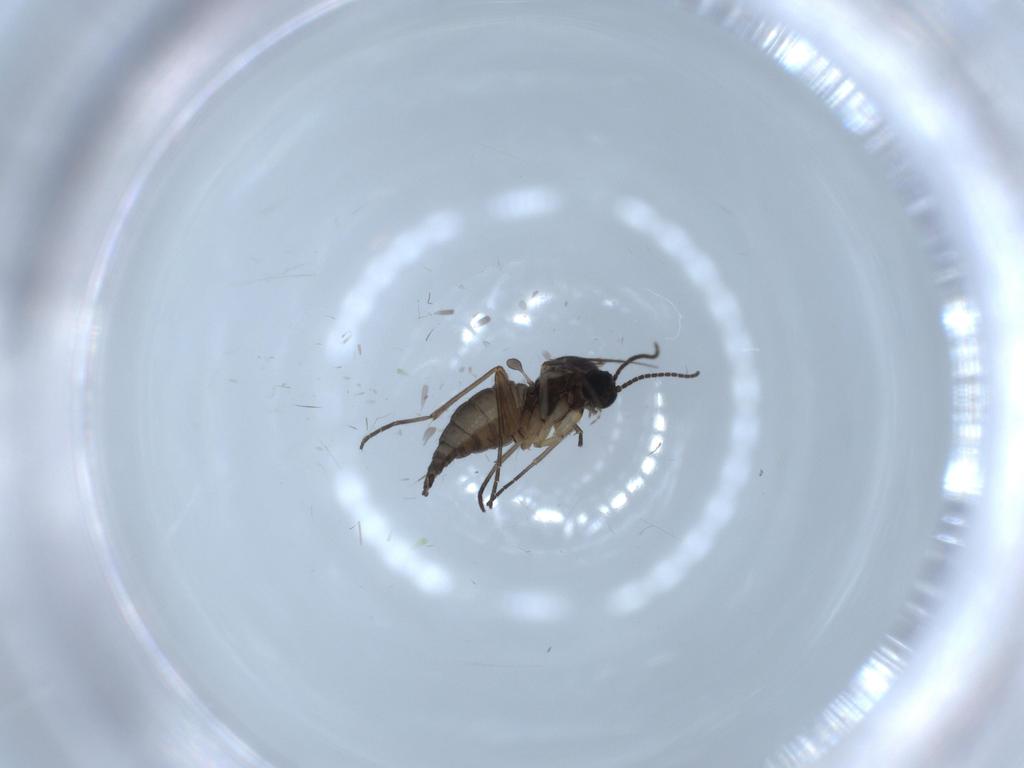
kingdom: Animalia
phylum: Arthropoda
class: Insecta
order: Diptera
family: Sciaridae
